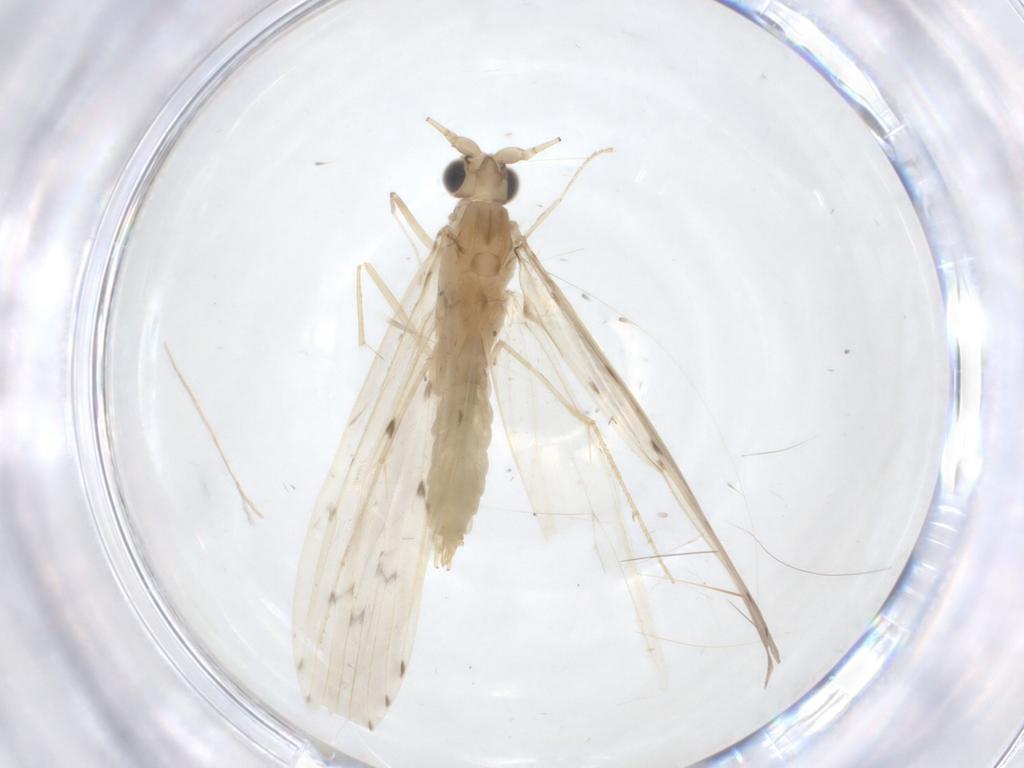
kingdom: Animalia
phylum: Arthropoda
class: Insecta
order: Trichoptera
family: Leptoceridae
